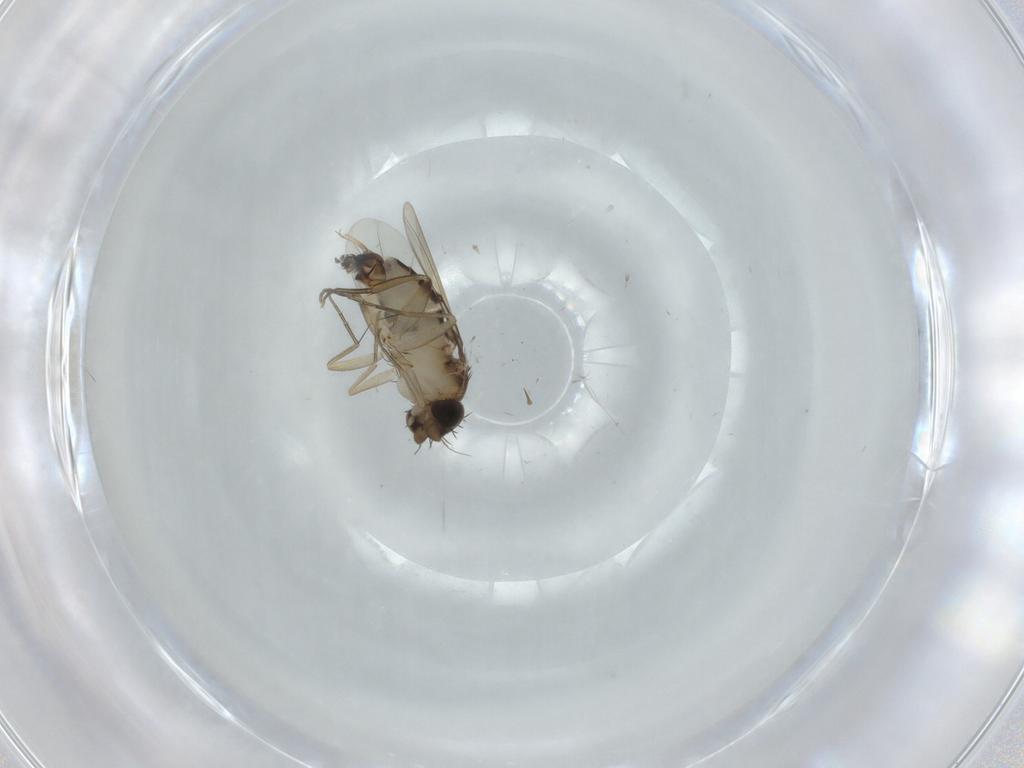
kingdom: Animalia
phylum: Arthropoda
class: Insecta
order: Diptera
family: Phoridae
